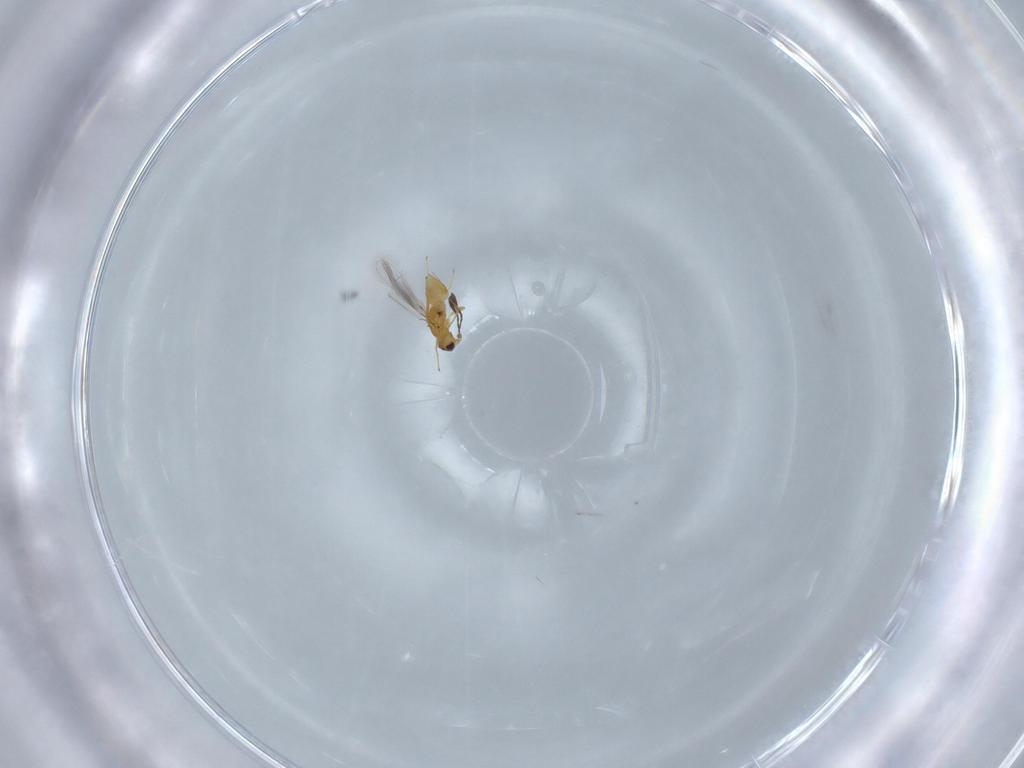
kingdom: Animalia
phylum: Arthropoda
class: Insecta
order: Hymenoptera
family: Mymaridae
